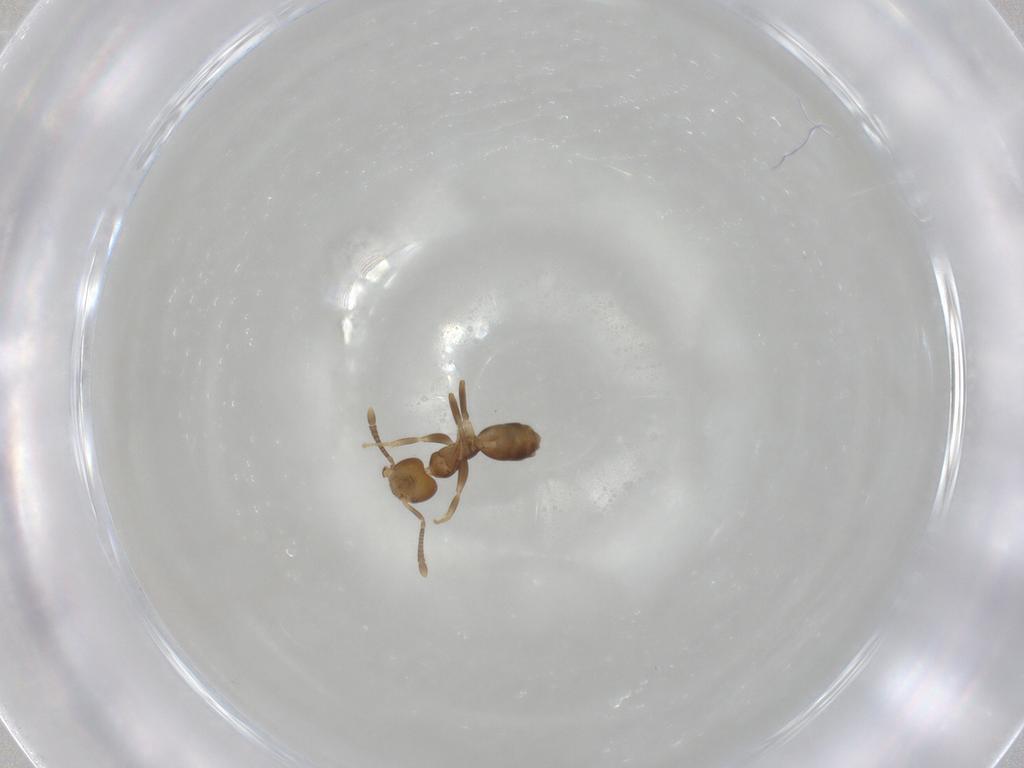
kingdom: Animalia
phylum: Arthropoda
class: Insecta
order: Hymenoptera
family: Formicidae
